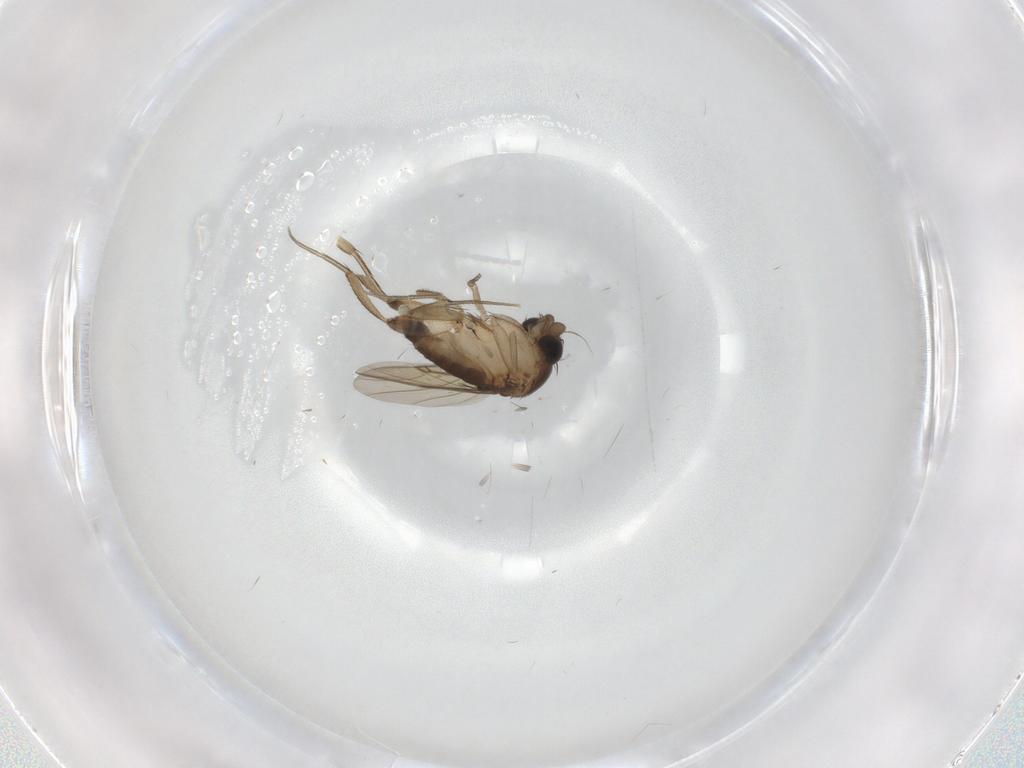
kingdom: Animalia
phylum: Arthropoda
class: Insecta
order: Diptera
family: Phoridae
